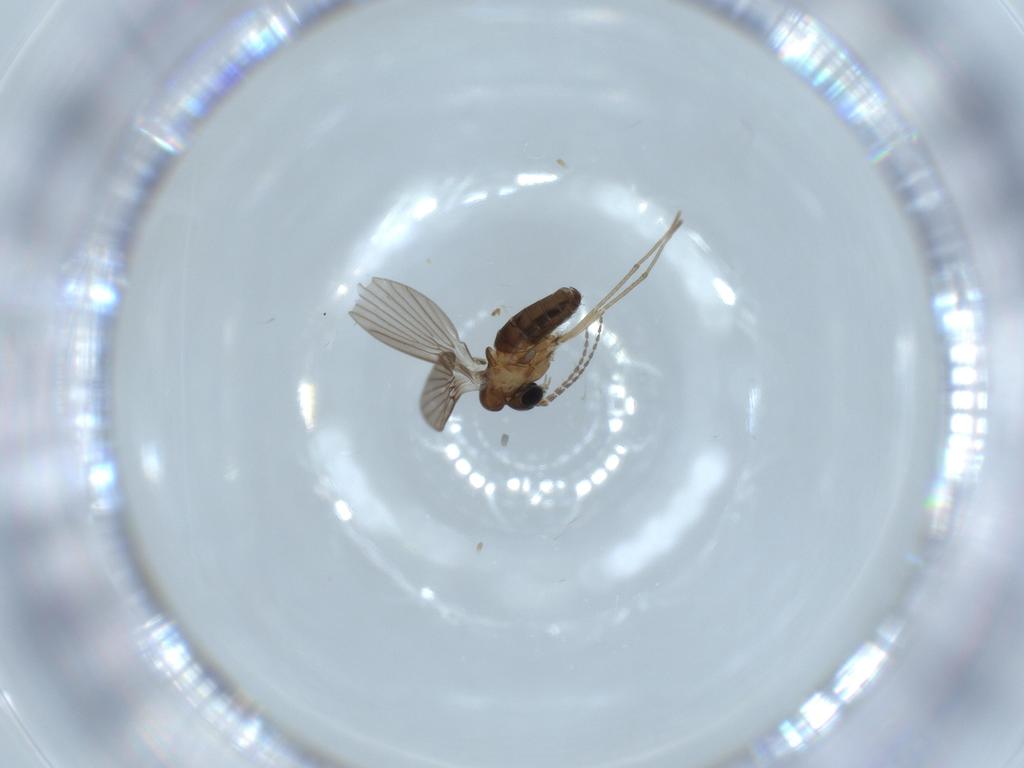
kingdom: Animalia
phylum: Arthropoda
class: Insecta
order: Diptera
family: Psychodidae
